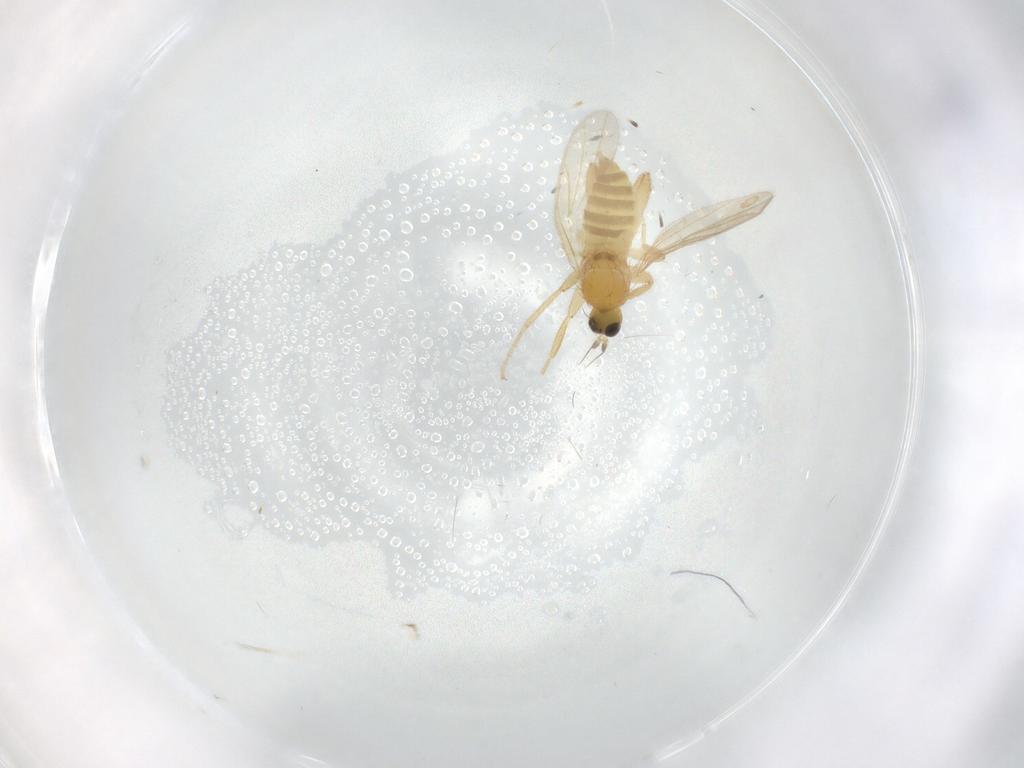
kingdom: Animalia
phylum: Arthropoda
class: Insecta
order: Diptera
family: Hybotidae
